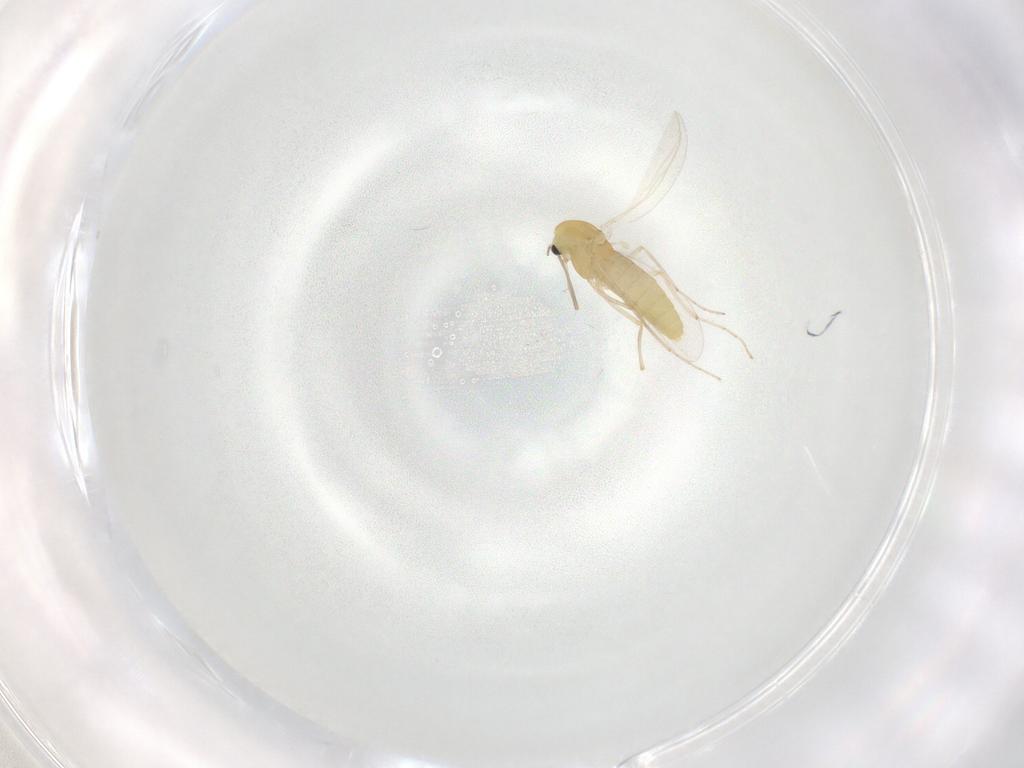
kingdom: Animalia
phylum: Arthropoda
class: Insecta
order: Diptera
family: Chironomidae
